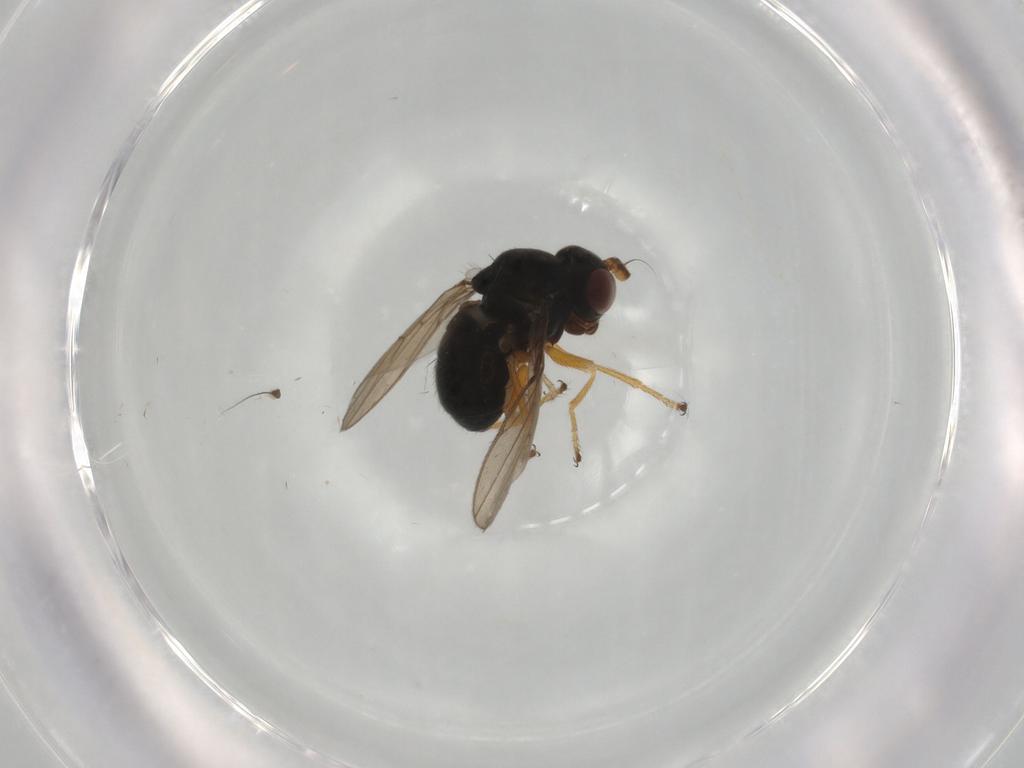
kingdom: Animalia
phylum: Arthropoda
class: Insecta
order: Diptera
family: Ephydridae
